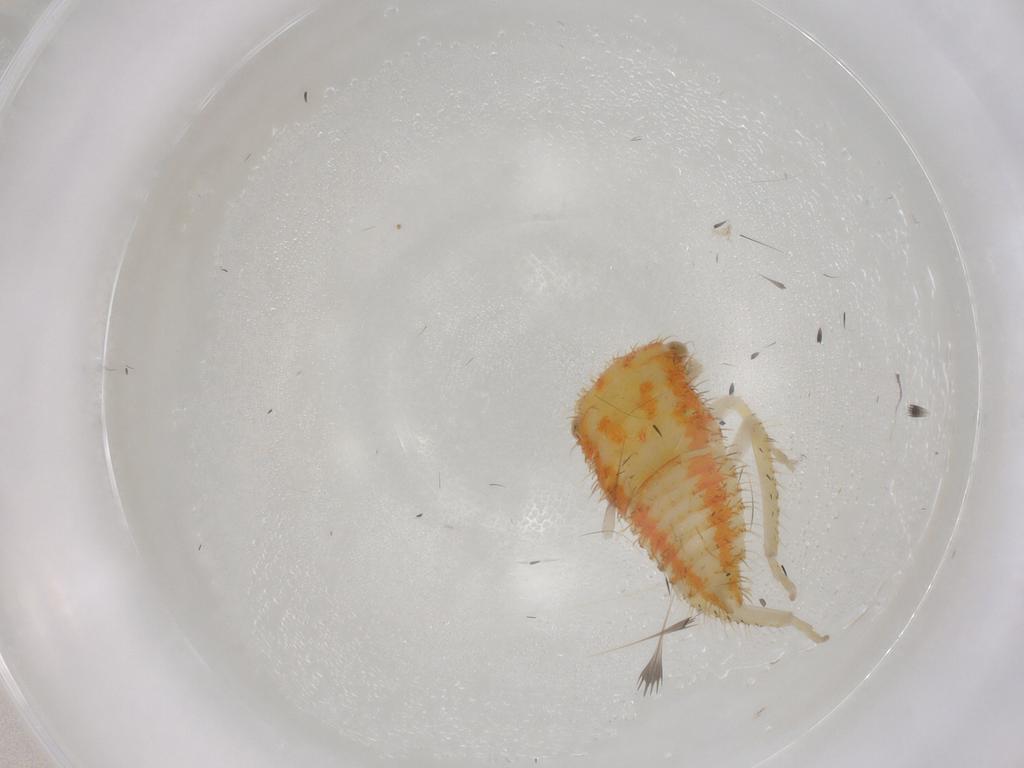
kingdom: Animalia
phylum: Arthropoda
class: Insecta
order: Hemiptera
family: Cicadellidae
